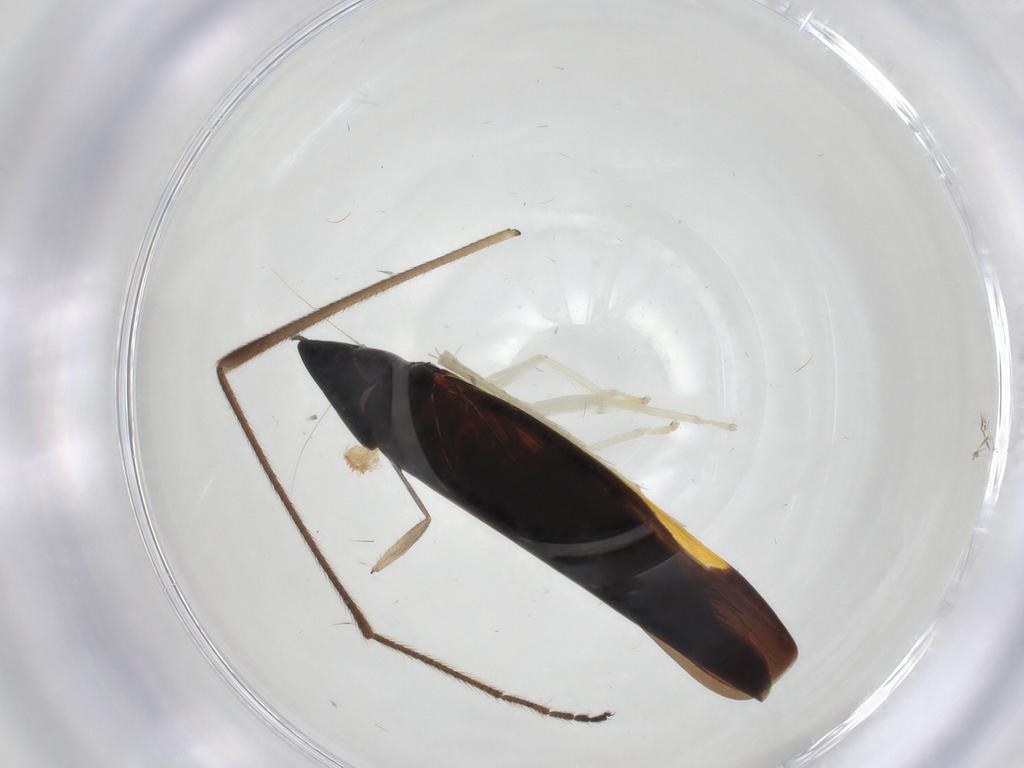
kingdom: Animalia
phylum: Arthropoda
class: Insecta
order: Hemiptera
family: Cicadellidae
